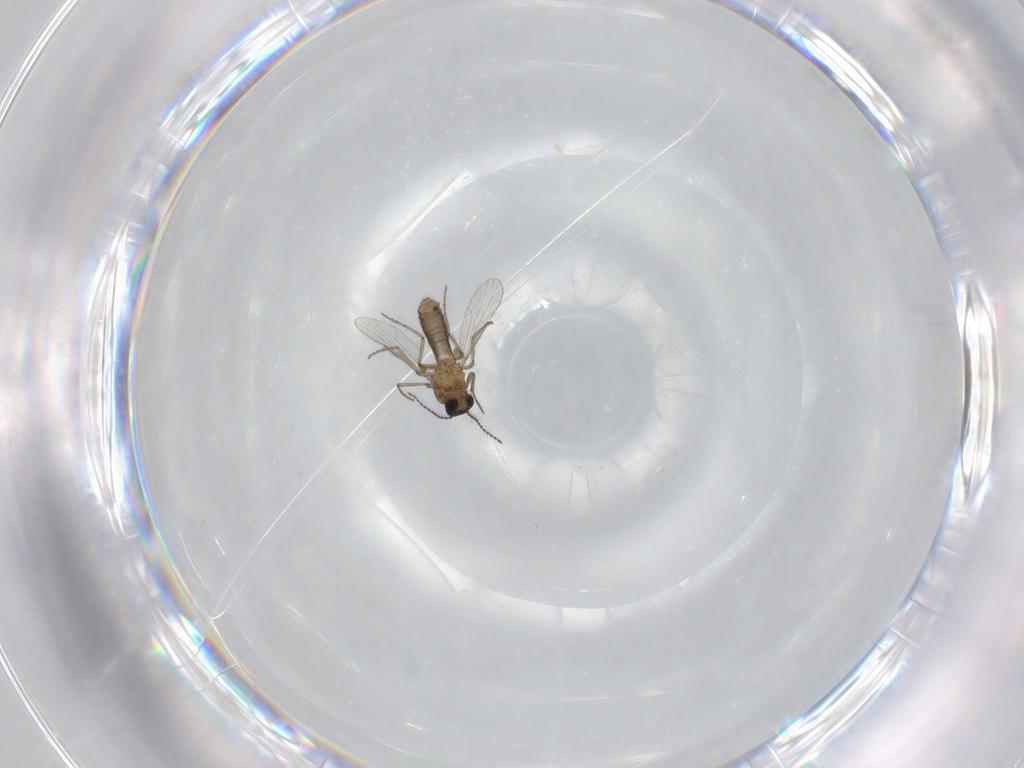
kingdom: Animalia
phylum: Arthropoda
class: Insecta
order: Diptera
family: Ceratopogonidae
